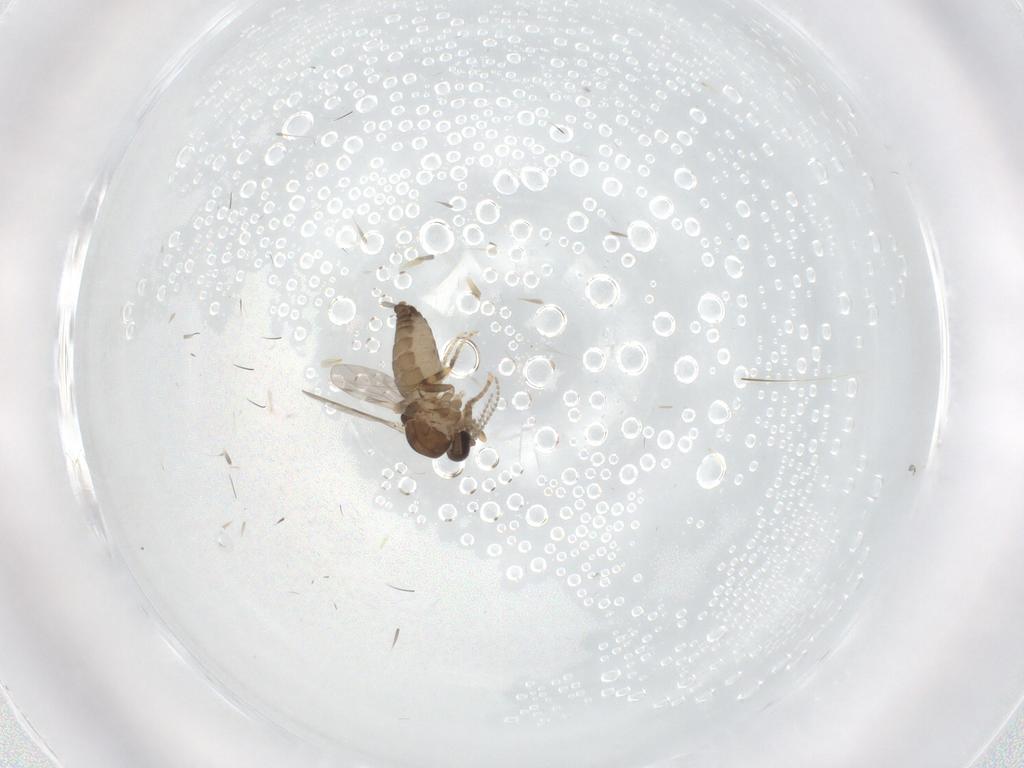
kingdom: Animalia
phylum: Arthropoda
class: Insecta
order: Diptera
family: Ceratopogonidae
